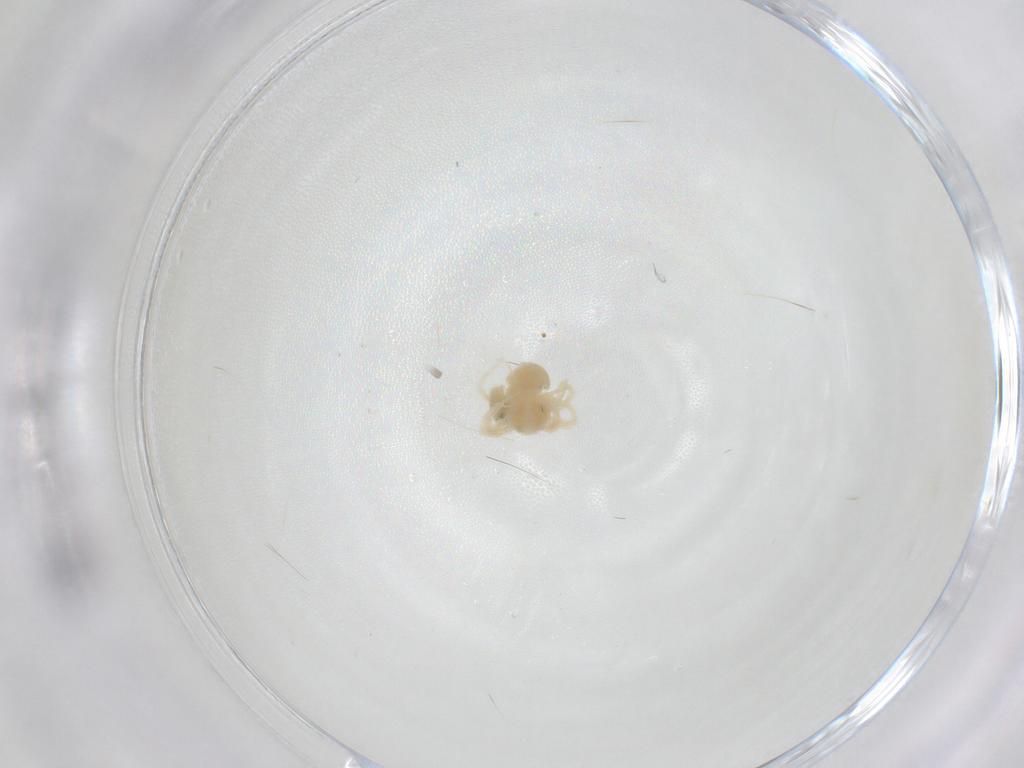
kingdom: Animalia
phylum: Arthropoda
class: Arachnida
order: Trombidiformes
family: Anystidae
